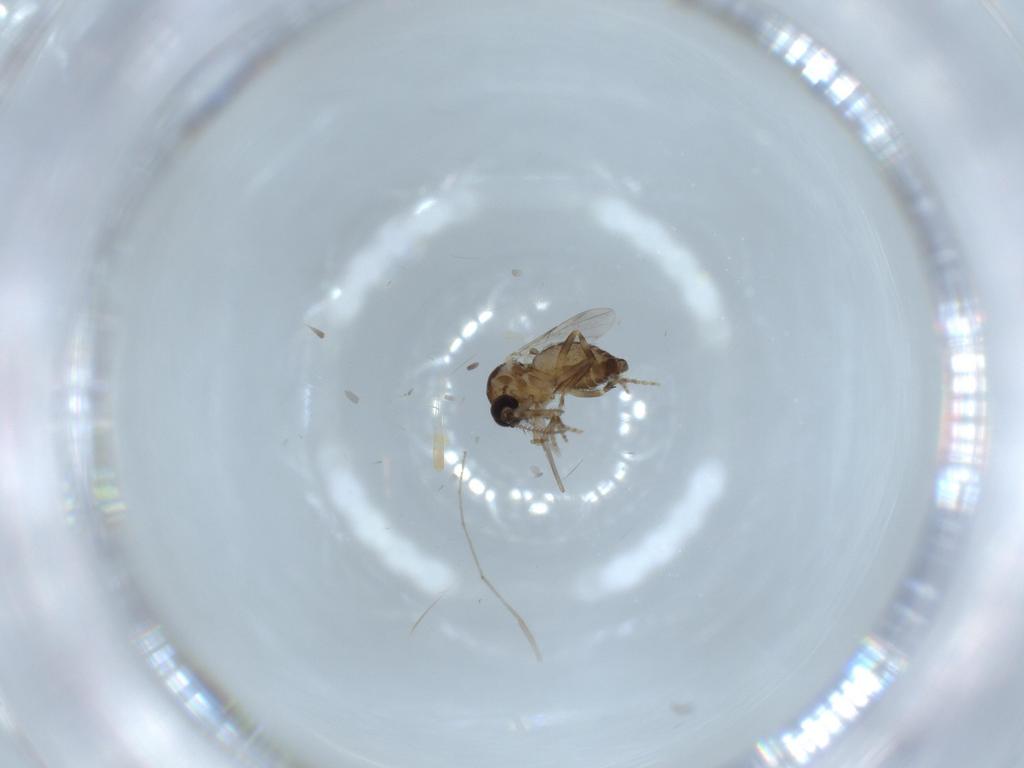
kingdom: Animalia
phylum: Arthropoda
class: Insecta
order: Diptera
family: Ceratopogonidae
